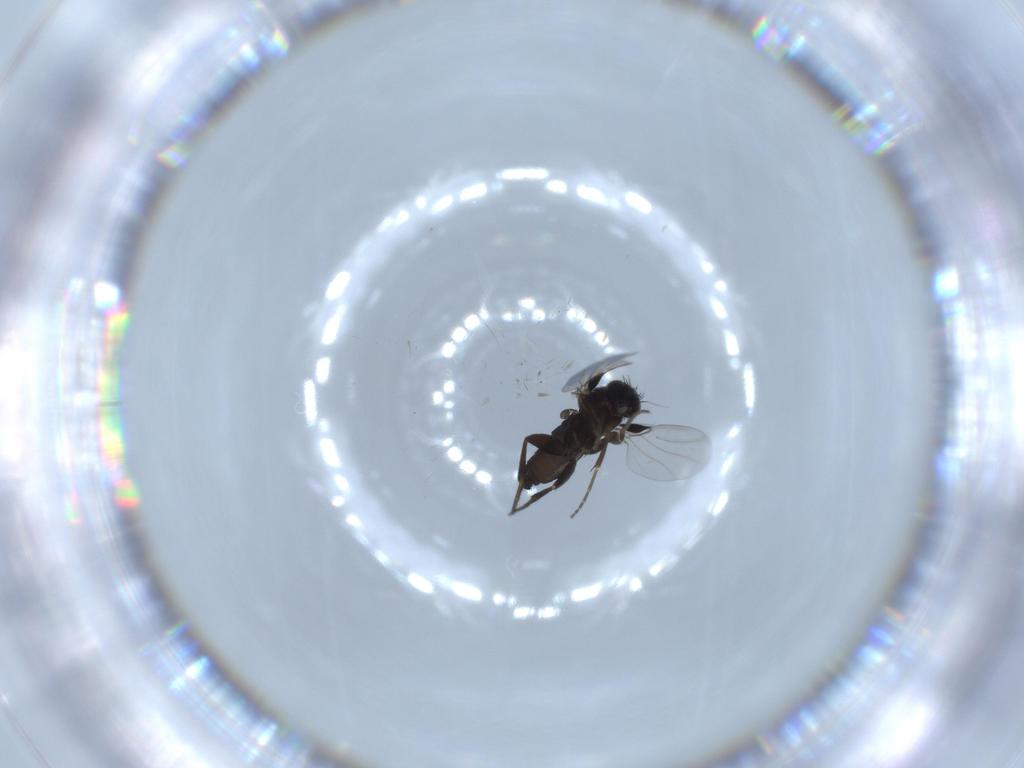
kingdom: Animalia
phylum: Arthropoda
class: Insecta
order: Diptera
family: Phoridae
